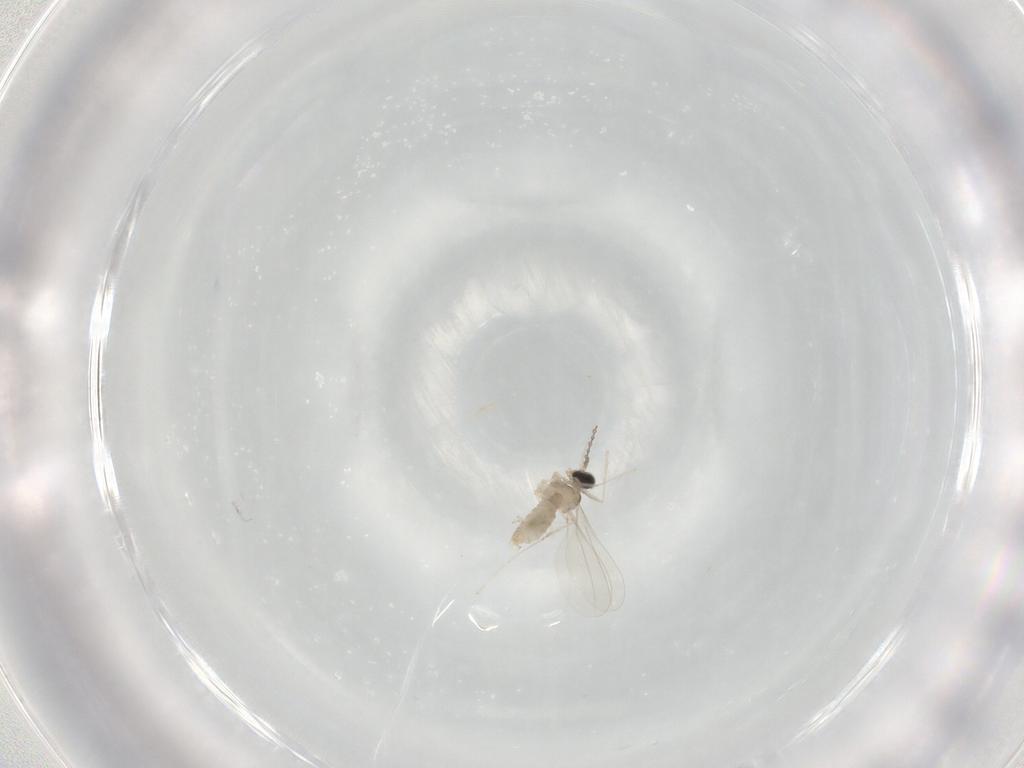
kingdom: Animalia
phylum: Arthropoda
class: Insecta
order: Diptera
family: Cecidomyiidae
